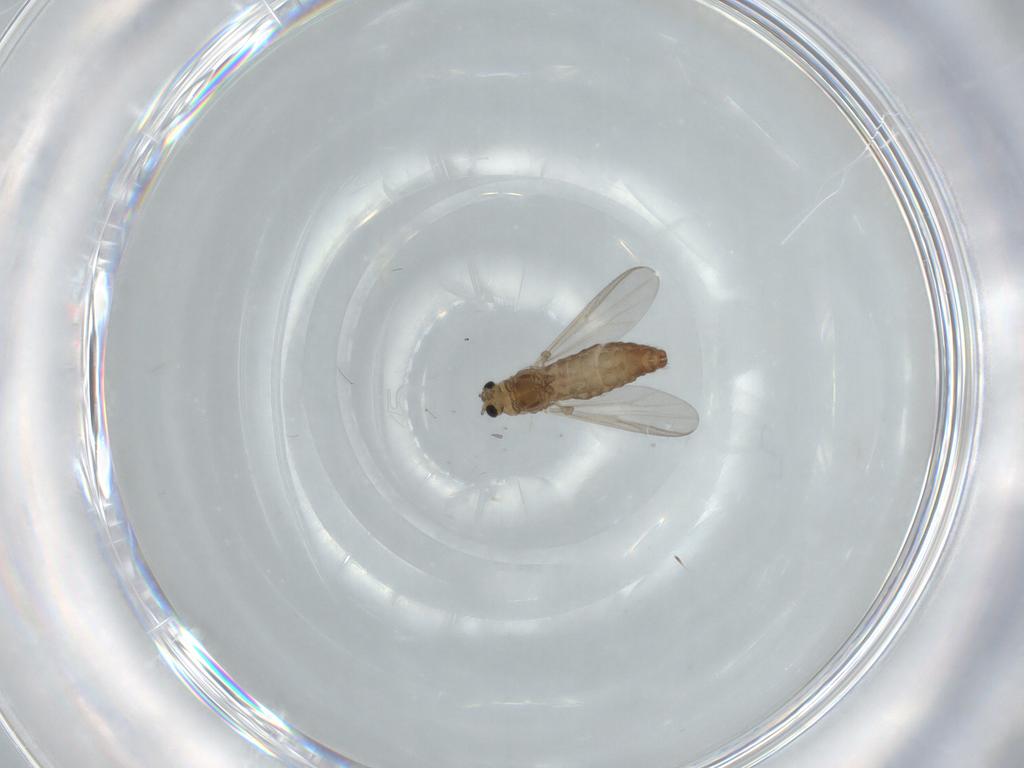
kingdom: Animalia
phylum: Arthropoda
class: Insecta
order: Diptera
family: Chironomidae
